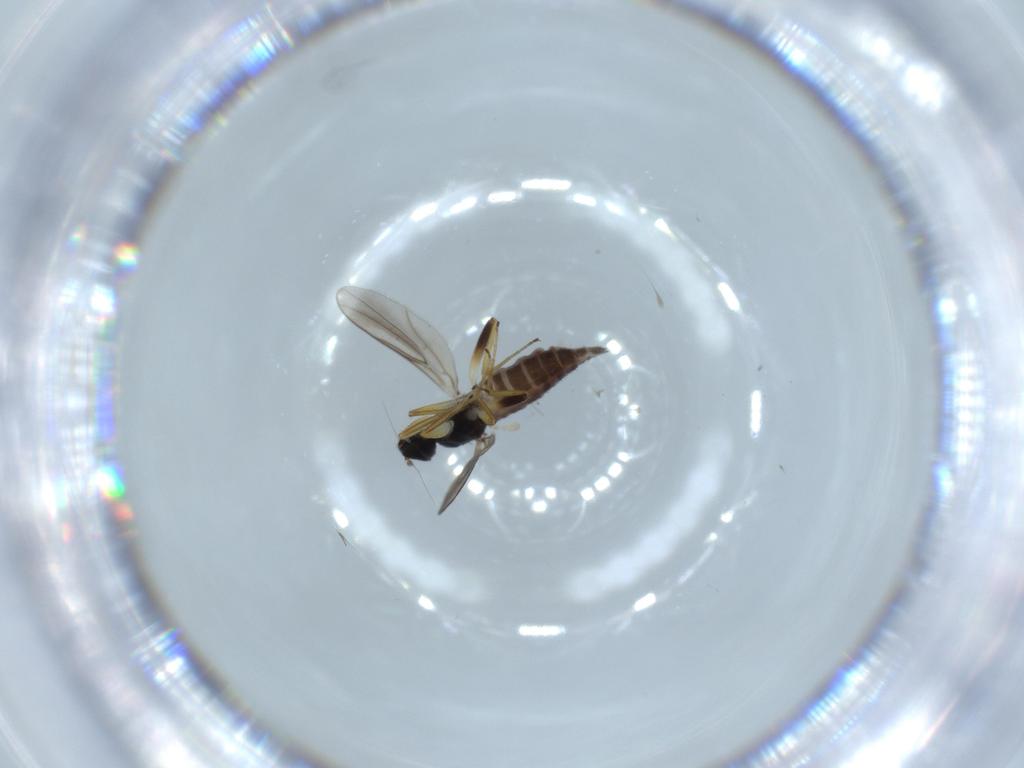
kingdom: Animalia
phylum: Arthropoda
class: Insecta
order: Diptera
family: Hybotidae
